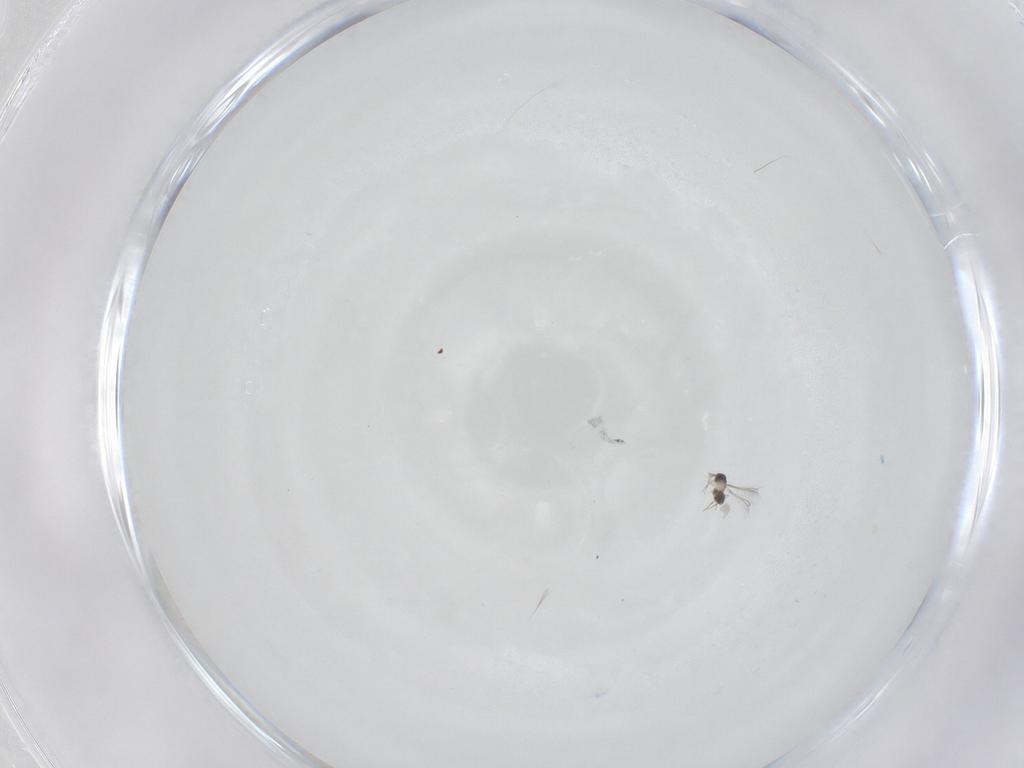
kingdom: Animalia
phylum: Arthropoda
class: Insecta
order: Hymenoptera
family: Mymaridae
